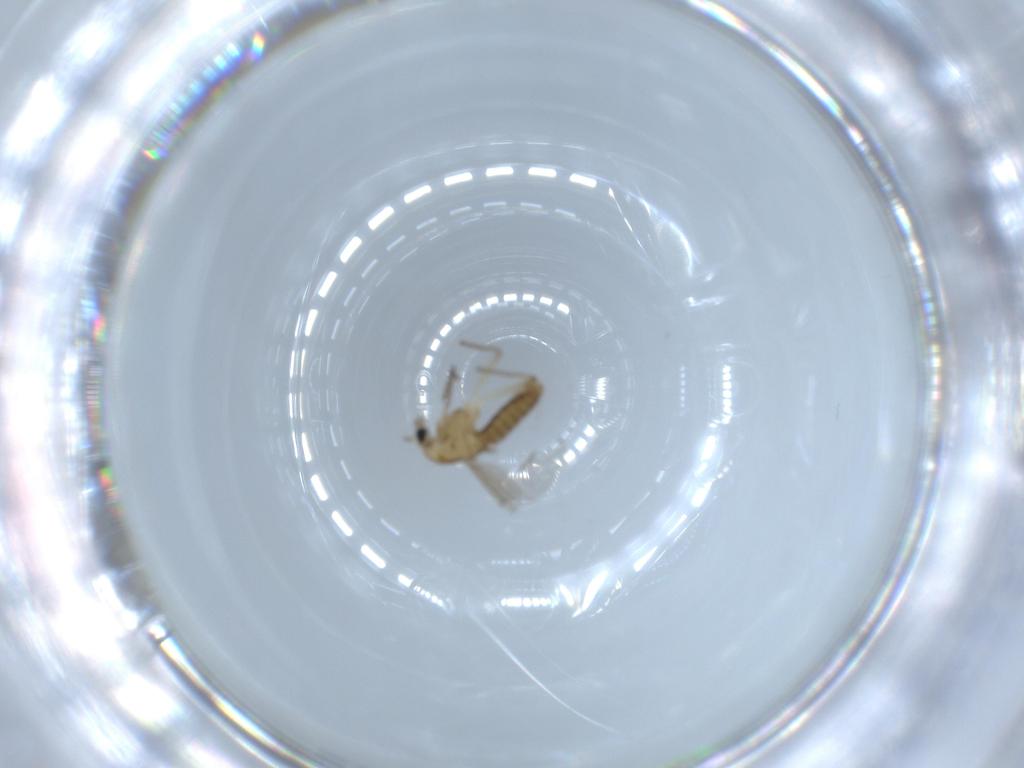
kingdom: Animalia
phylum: Arthropoda
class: Insecta
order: Diptera
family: Chironomidae
